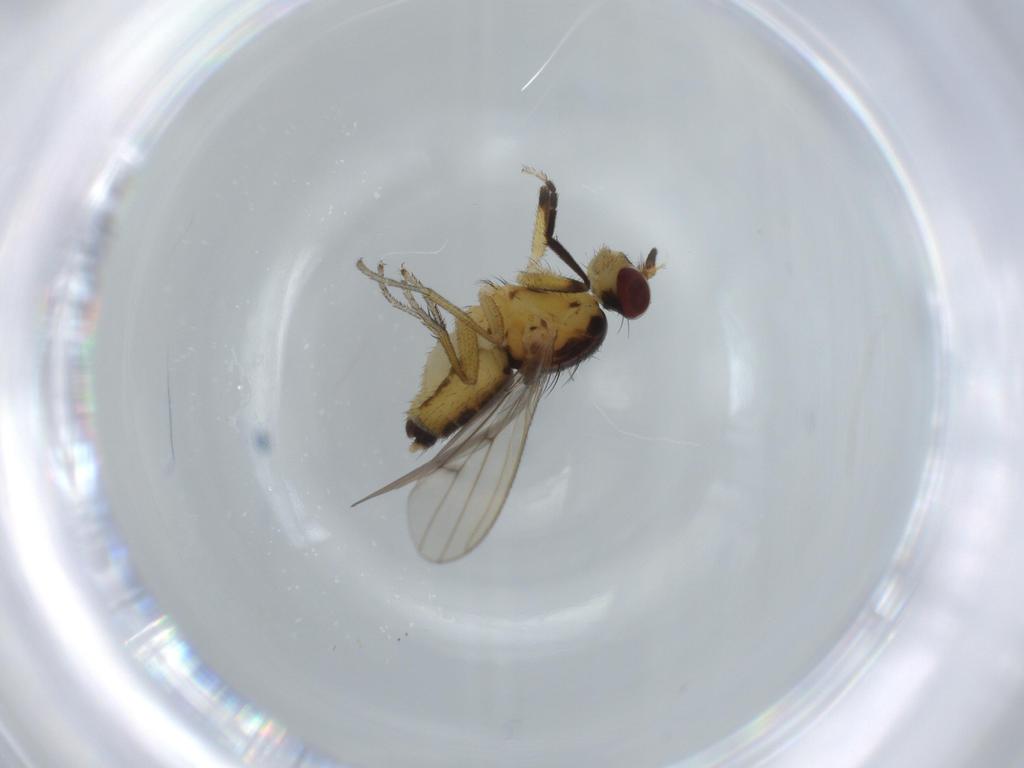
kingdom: Animalia
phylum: Arthropoda
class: Insecta
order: Diptera
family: Sciomyzidae
